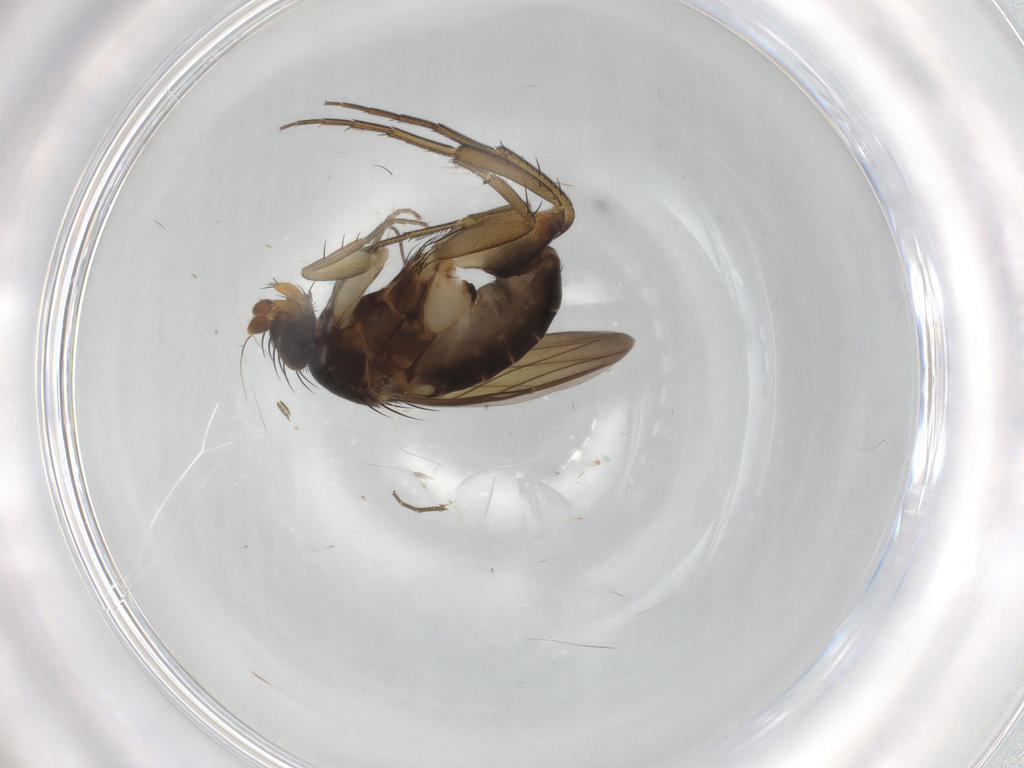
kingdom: Animalia
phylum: Arthropoda
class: Insecta
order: Diptera
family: Phoridae
